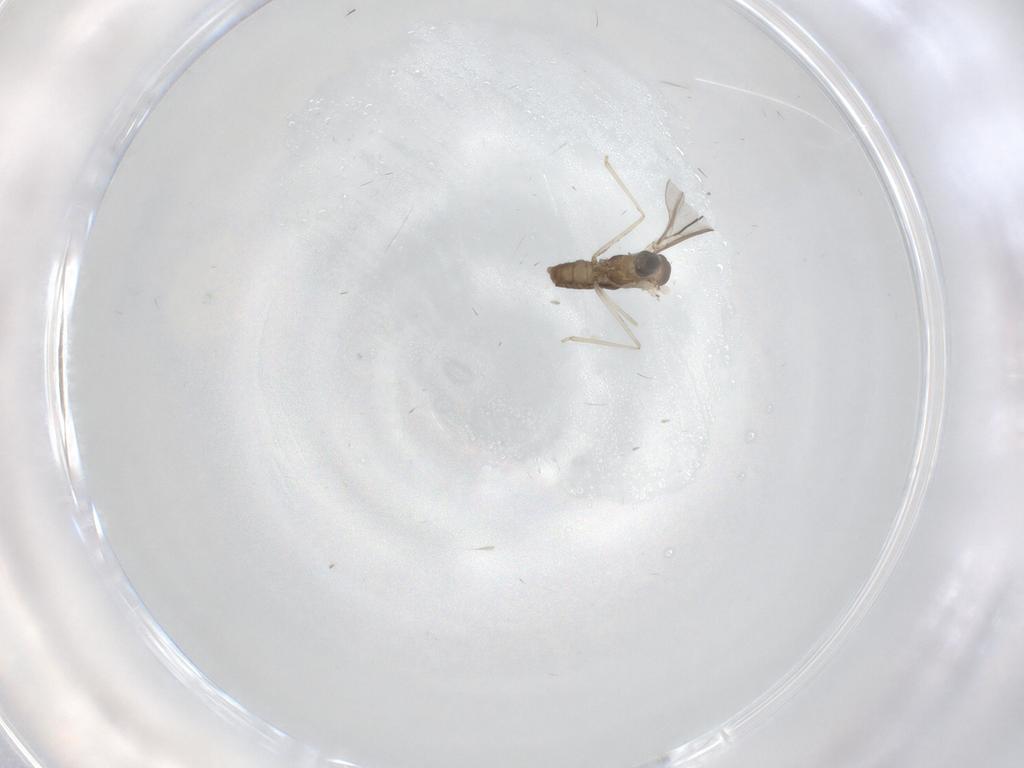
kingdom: Animalia
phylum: Arthropoda
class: Insecta
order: Diptera
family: Cecidomyiidae
